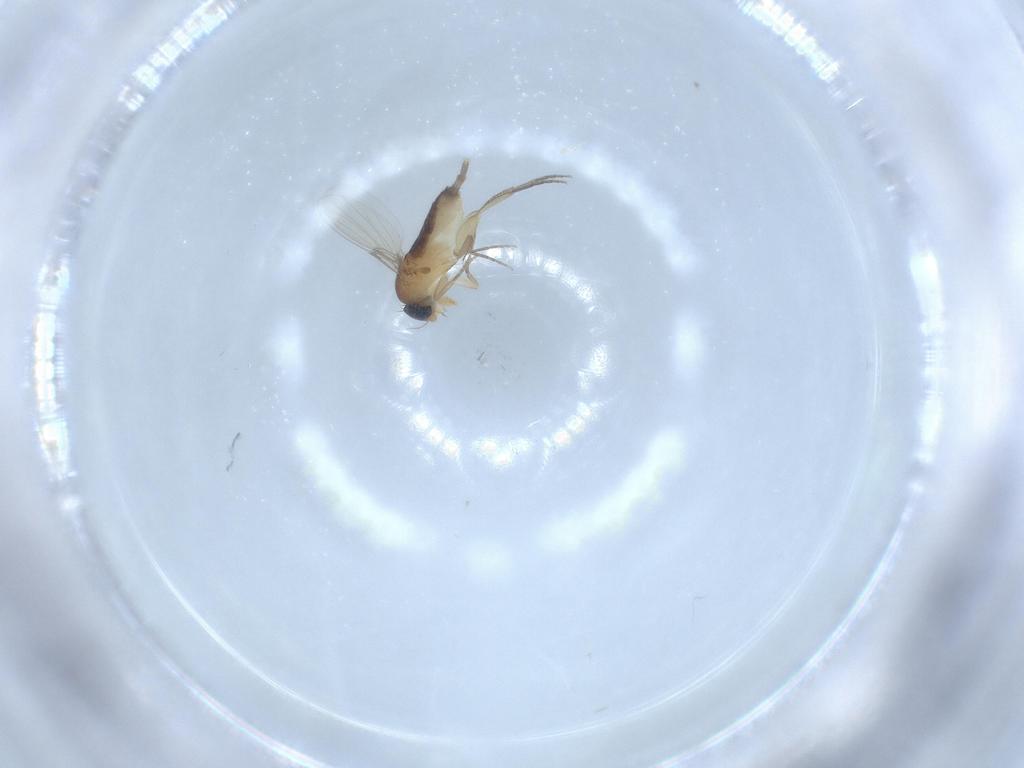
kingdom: Animalia
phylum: Arthropoda
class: Insecta
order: Diptera
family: Phoridae
